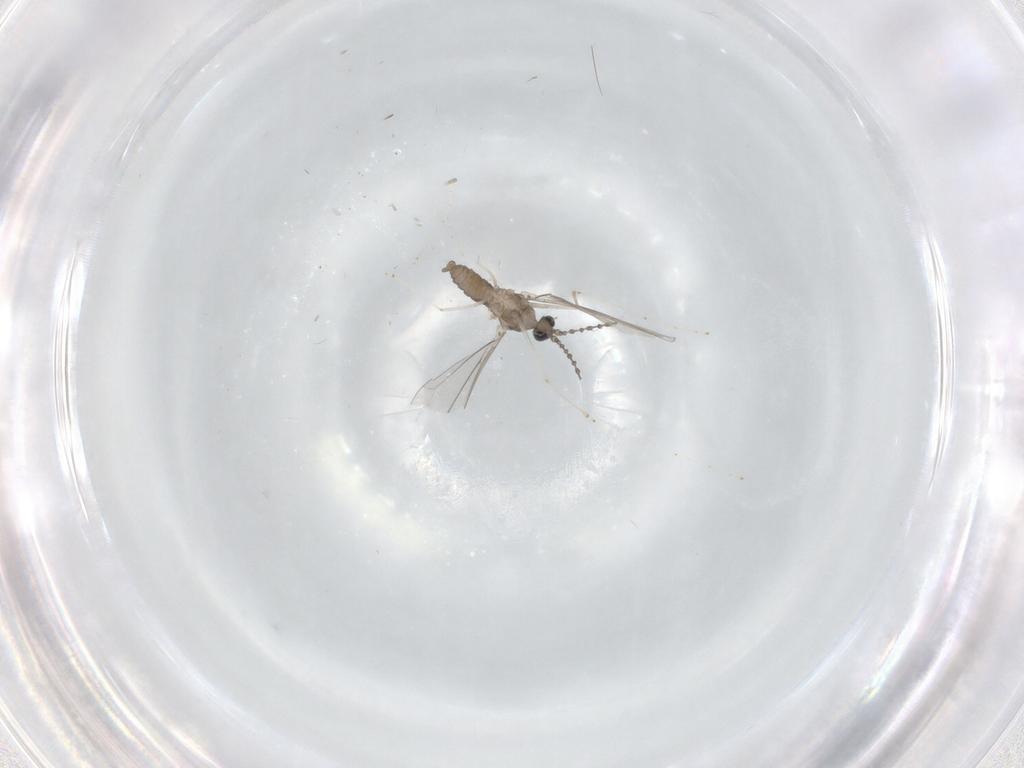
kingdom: Animalia
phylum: Arthropoda
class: Insecta
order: Diptera
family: Cecidomyiidae
